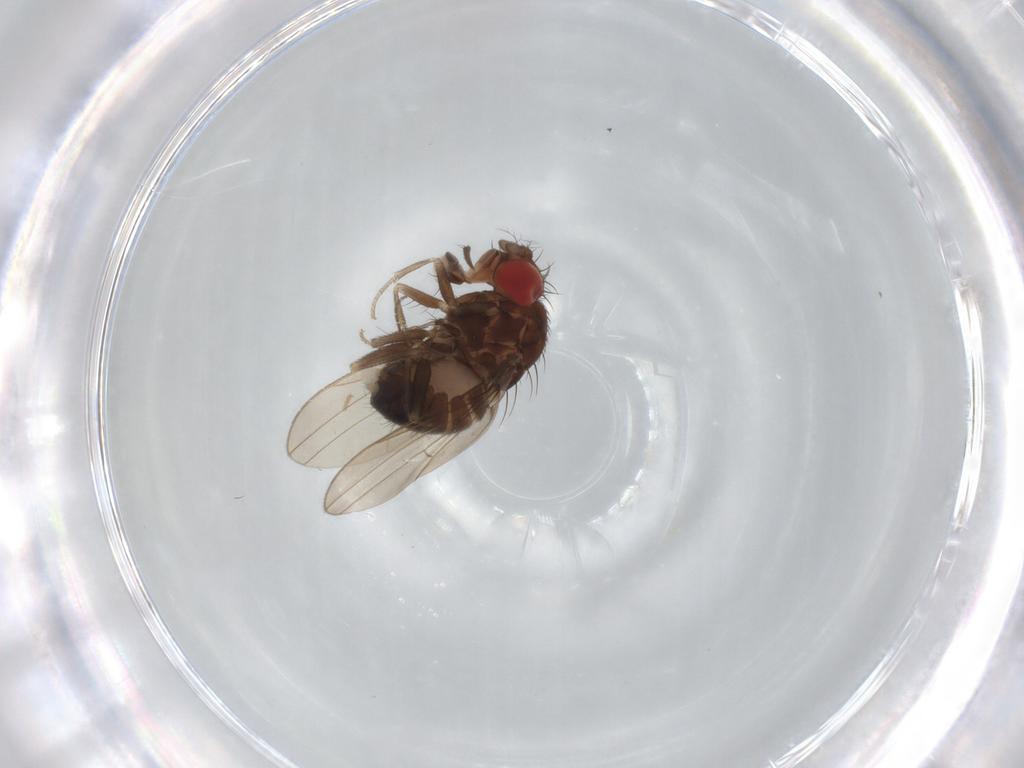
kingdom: Animalia
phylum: Arthropoda
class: Insecta
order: Diptera
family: Drosophilidae
